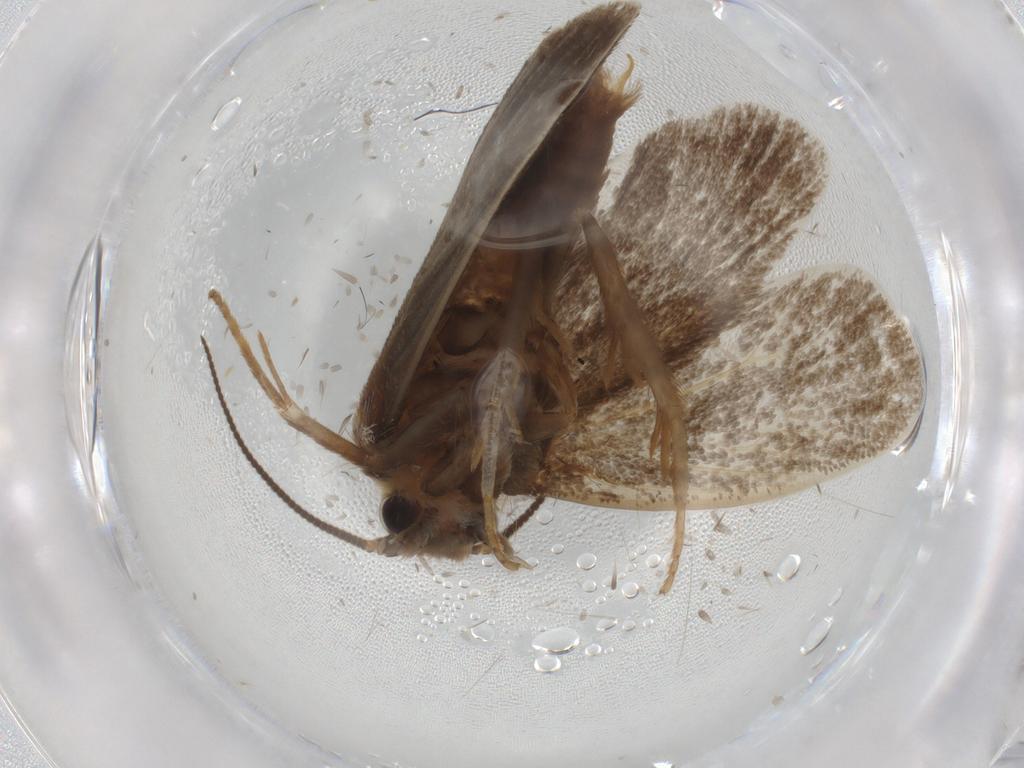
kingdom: Animalia
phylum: Arthropoda
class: Insecta
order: Lepidoptera
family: Tineidae
